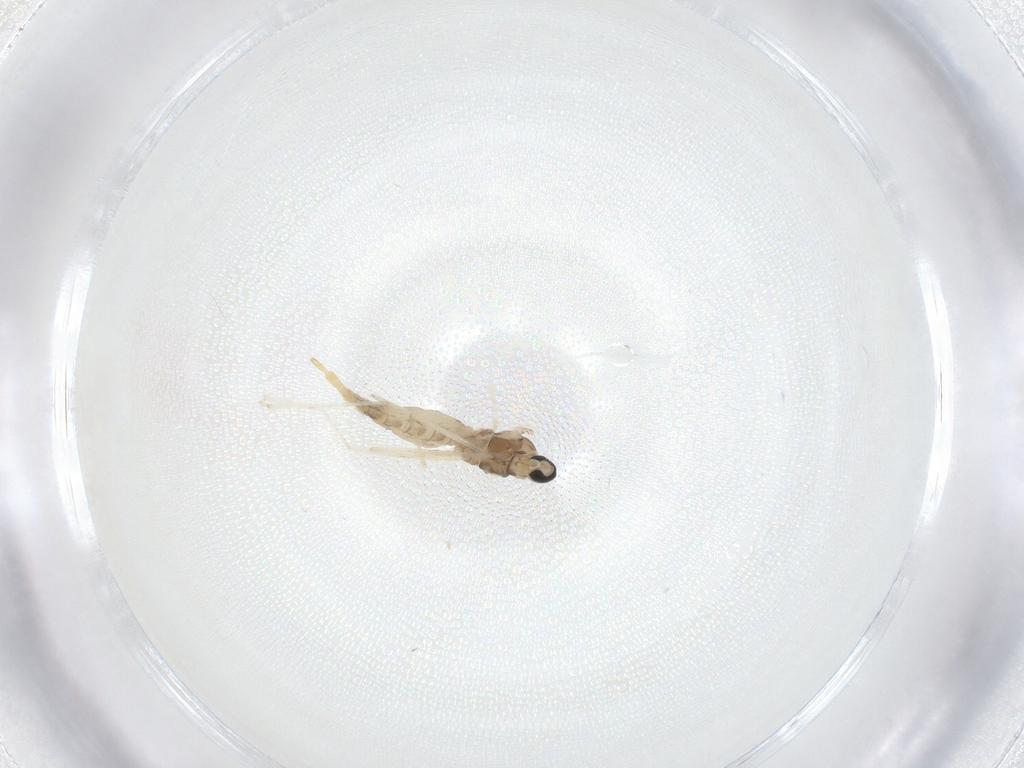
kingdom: Animalia
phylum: Arthropoda
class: Insecta
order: Diptera
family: Cecidomyiidae
